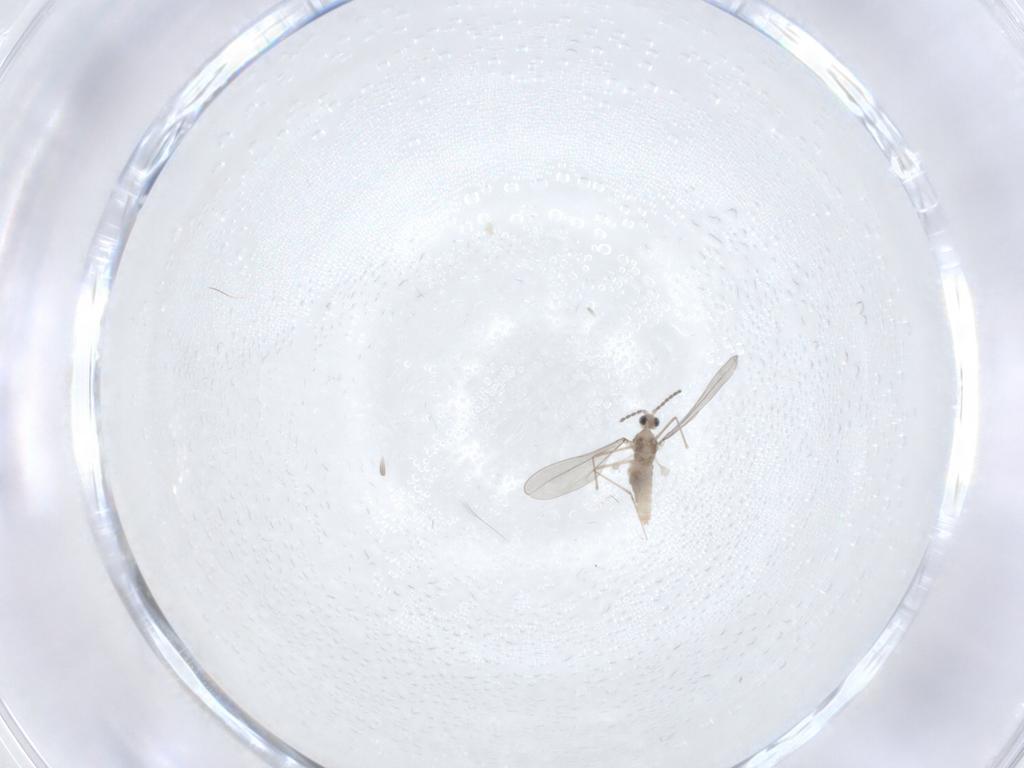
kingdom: Animalia
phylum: Arthropoda
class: Insecta
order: Diptera
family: Cecidomyiidae
